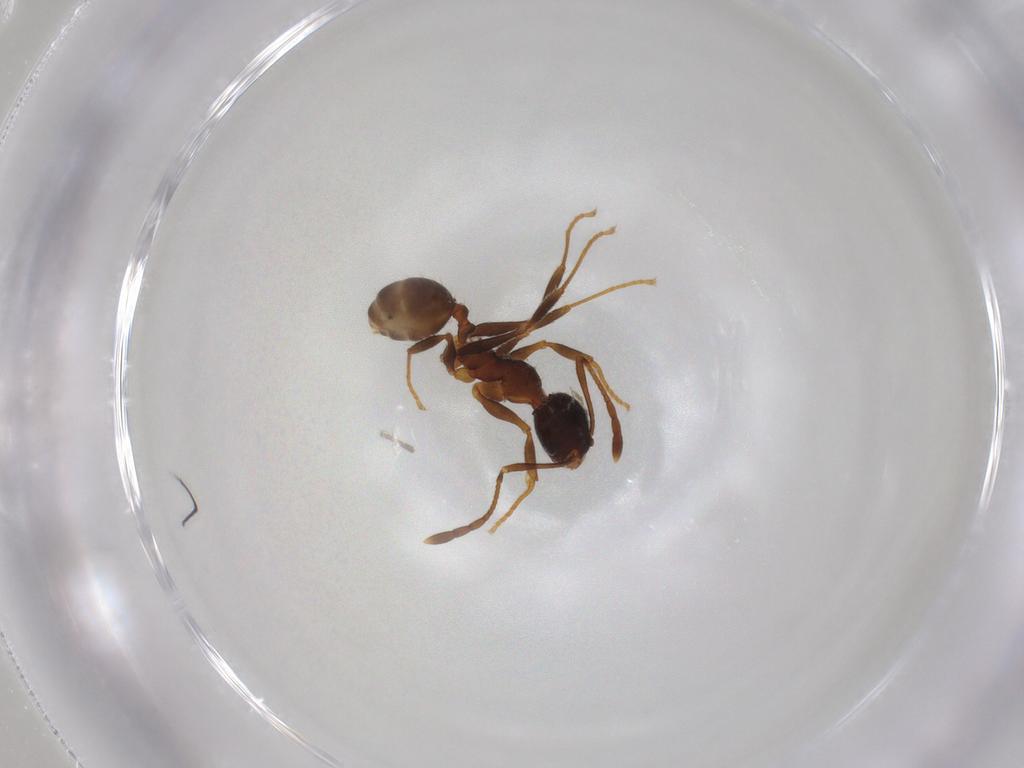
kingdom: Animalia
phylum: Arthropoda
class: Insecta
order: Hymenoptera
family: Formicidae
